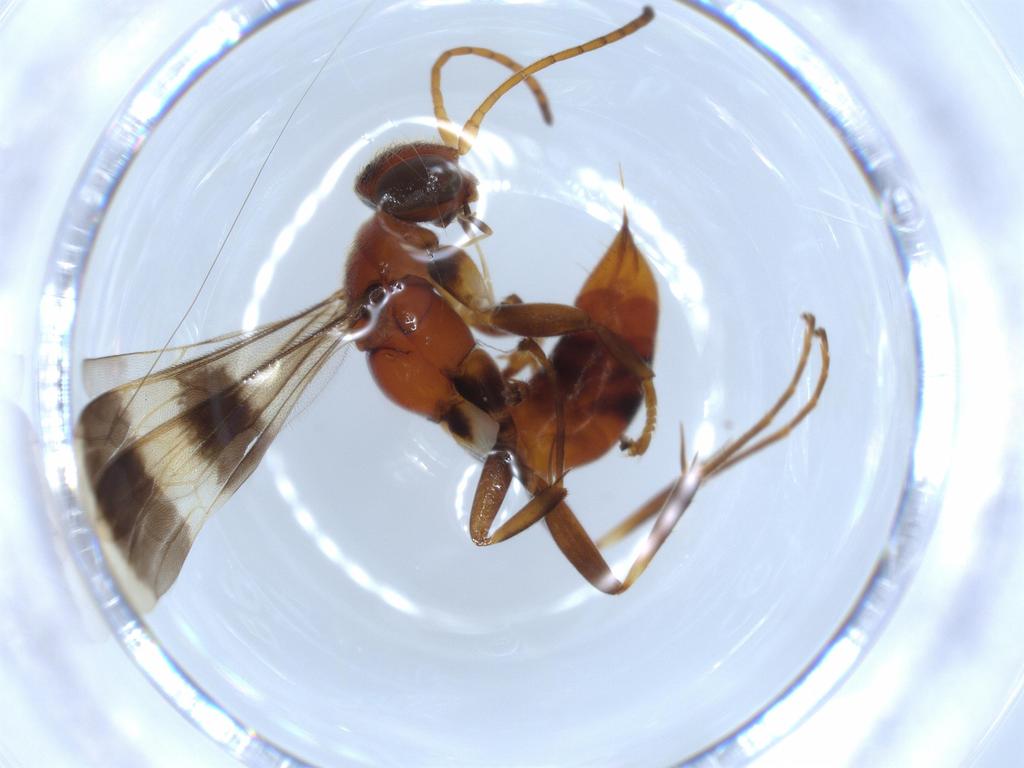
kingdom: Animalia
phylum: Arthropoda
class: Insecta
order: Hymenoptera
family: Pompilidae
